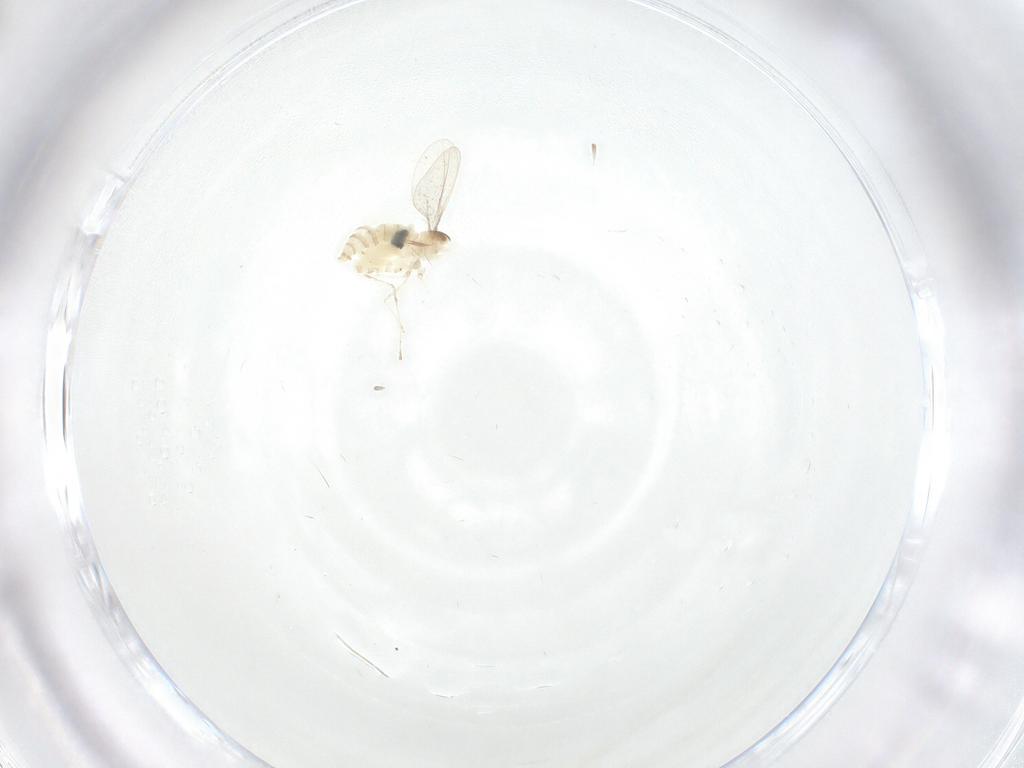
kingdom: Animalia
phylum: Arthropoda
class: Insecta
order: Diptera
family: Cecidomyiidae
